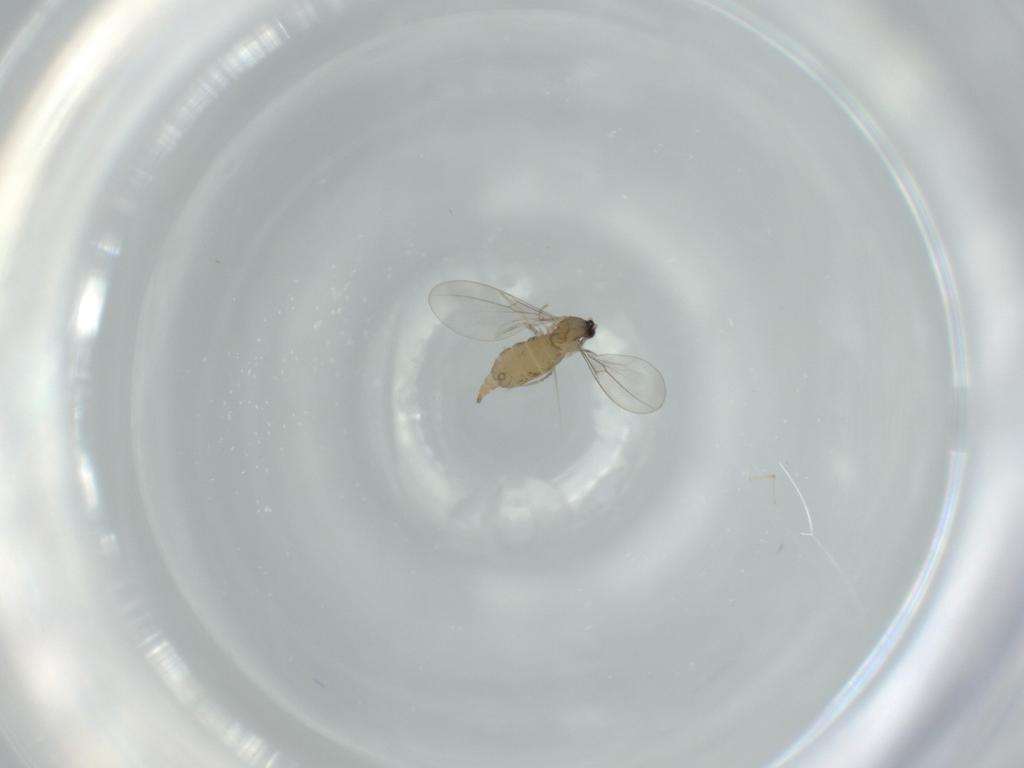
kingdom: Animalia
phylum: Arthropoda
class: Insecta
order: Diptera
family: Cecidomyiidae
